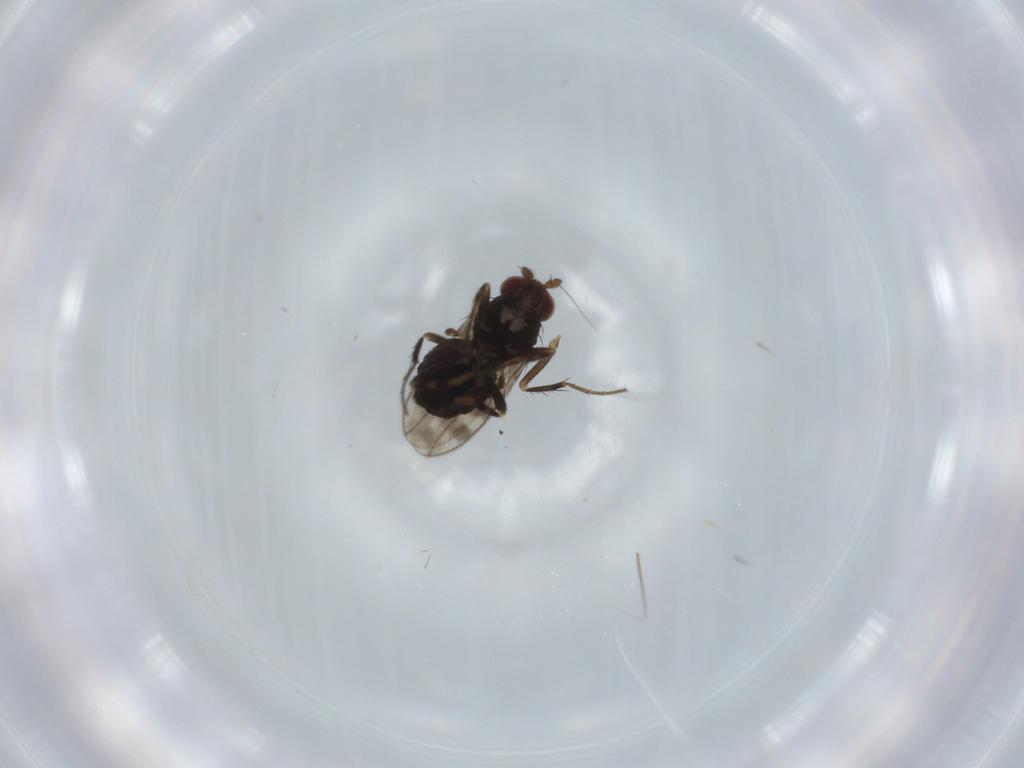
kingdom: Animalia
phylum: Arthropoda
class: Insecta
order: Diptera
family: Sphaeroceridae
